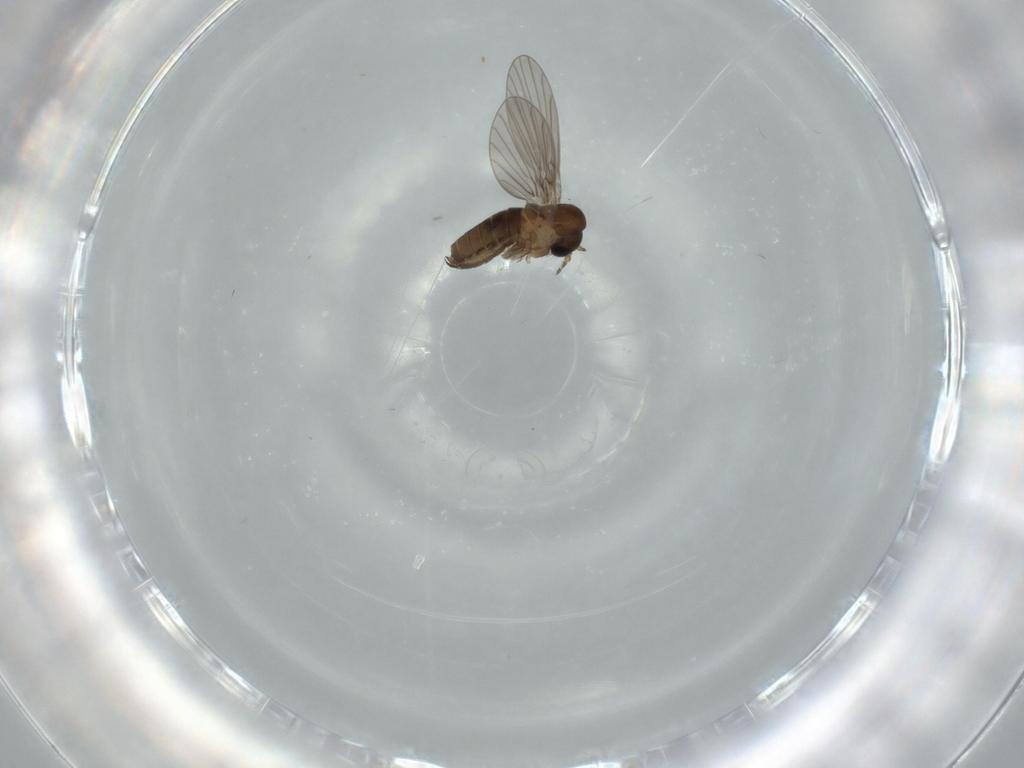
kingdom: Animalia
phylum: Arthropoda
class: Insecta
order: Diptera
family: Psychodidae
